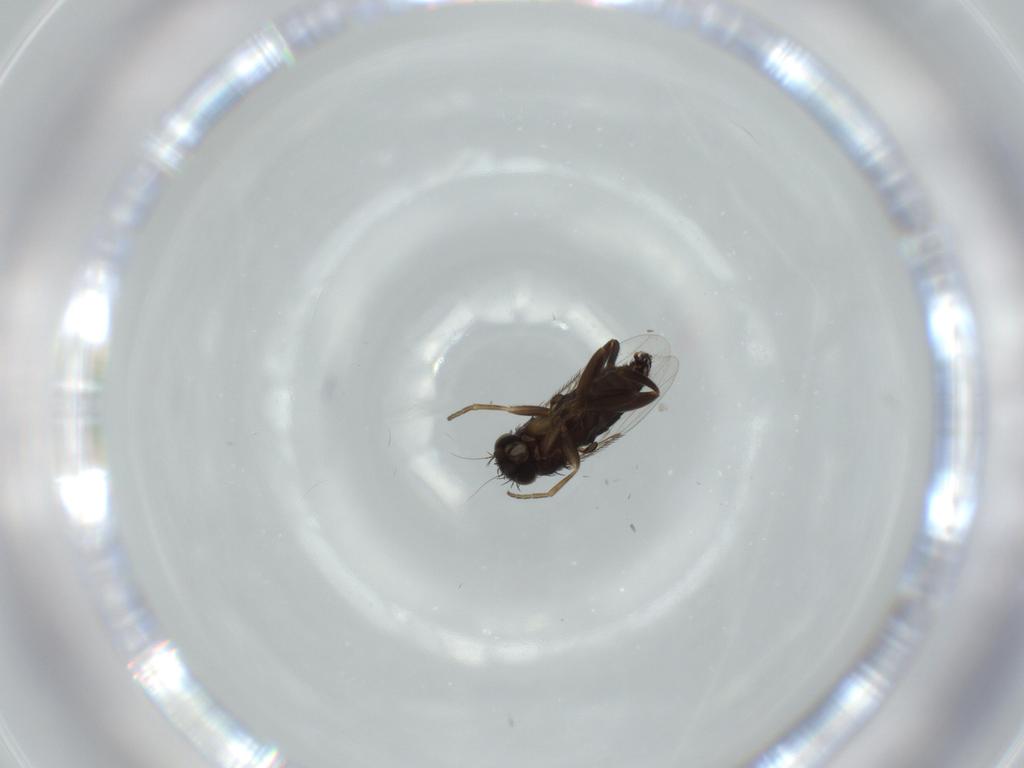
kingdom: Animalia
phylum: Arthropoda
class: Insecta
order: Diptera
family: Phoridae
